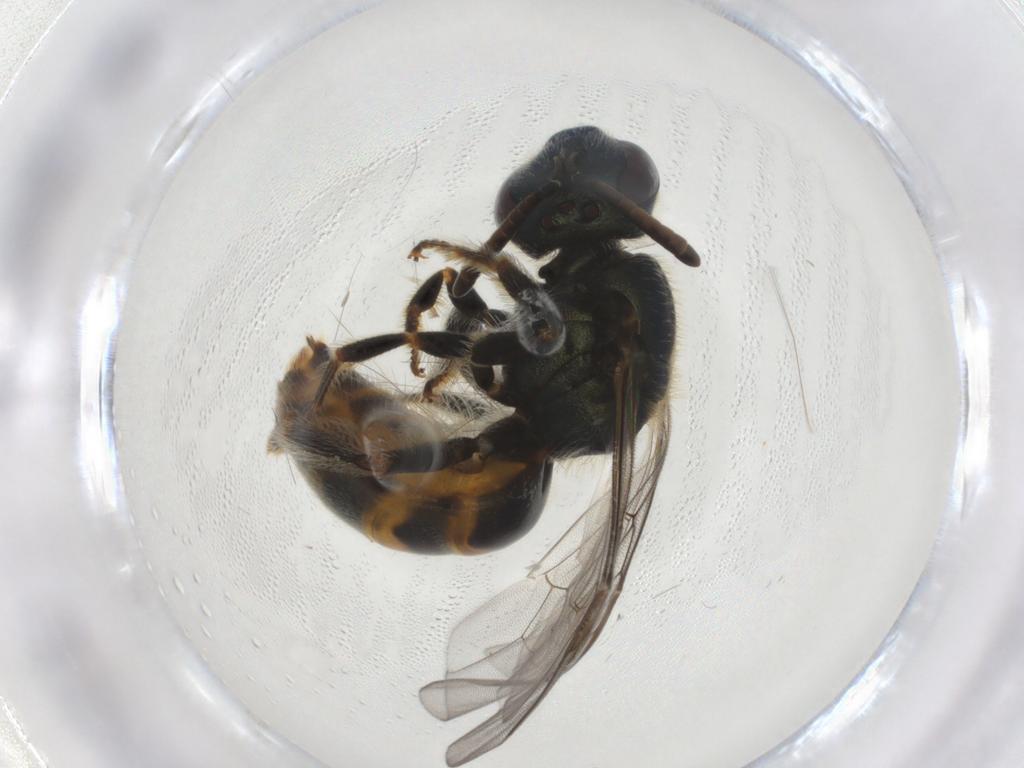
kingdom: Animalia
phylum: Arthropoda
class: Insecta
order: Hymenoptera
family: Halictidae
